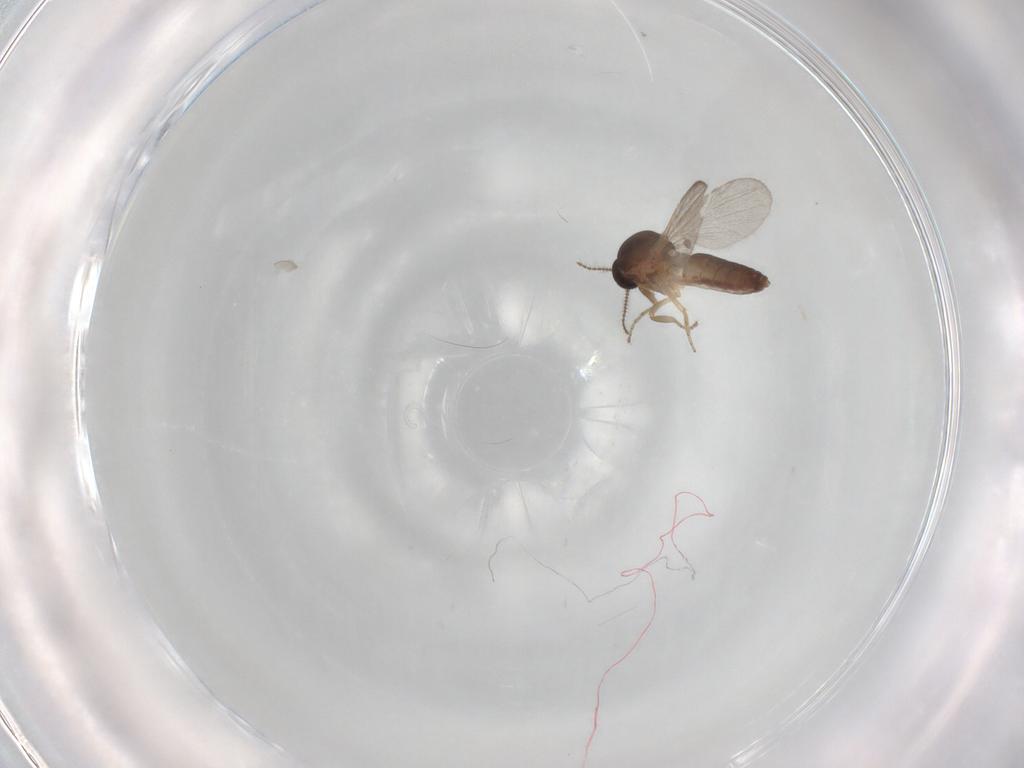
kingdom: Animalia
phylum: Arthropoda
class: Insecta
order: Diptera
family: Ceratopogonidae
